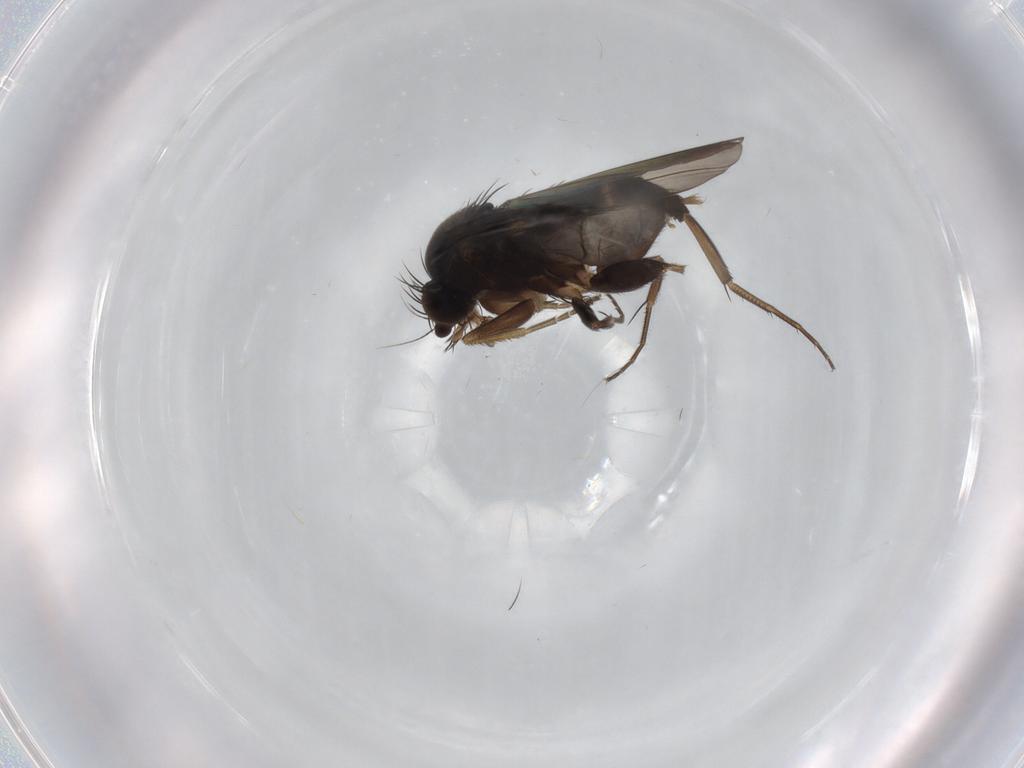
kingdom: Animalia
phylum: Arthropoda
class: Insecta
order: Diptera
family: Phoridae
